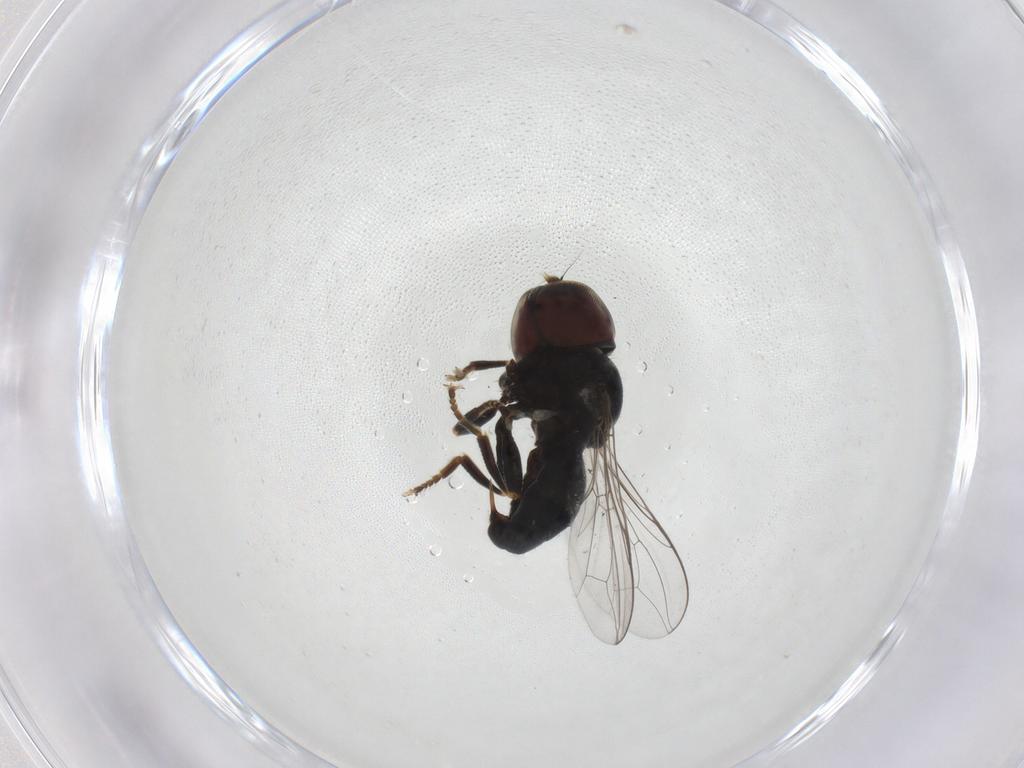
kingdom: Animalia
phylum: Arthropoda
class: Insecta
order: Diptera
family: Pipunculidae
